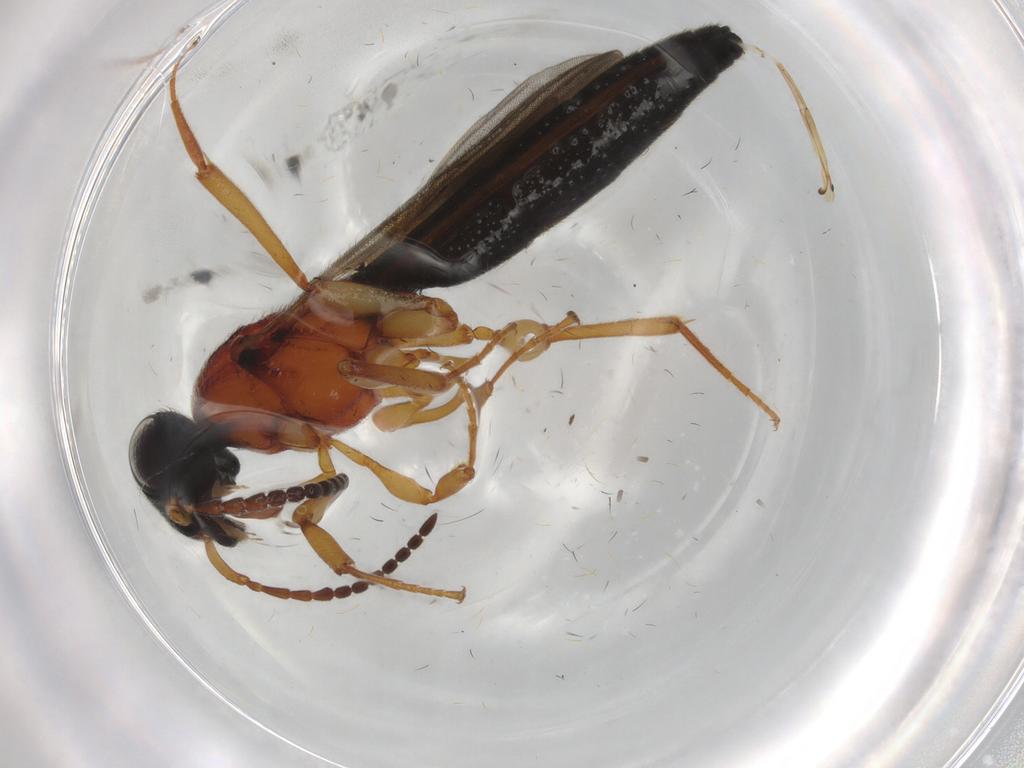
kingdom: Animalia
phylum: Arthropoda
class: Insecta
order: Hymenoptera
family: Scelionidae
